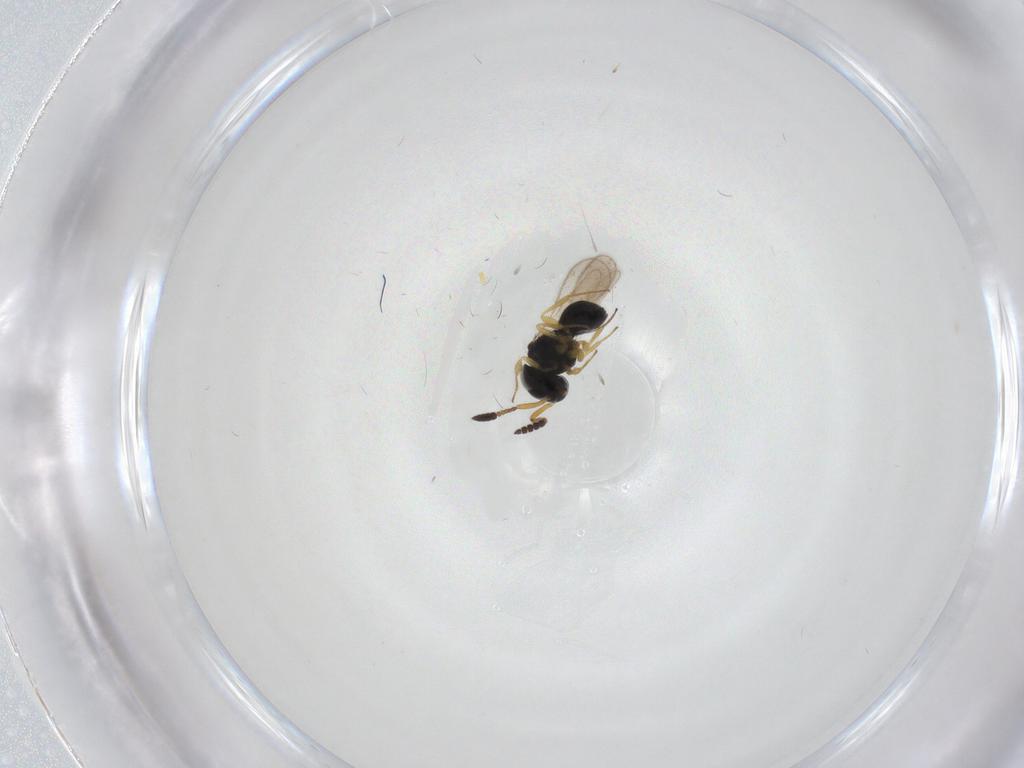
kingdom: Animalia
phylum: Arthropoda
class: Insecta
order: Hymenoptera
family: Scelionidae
